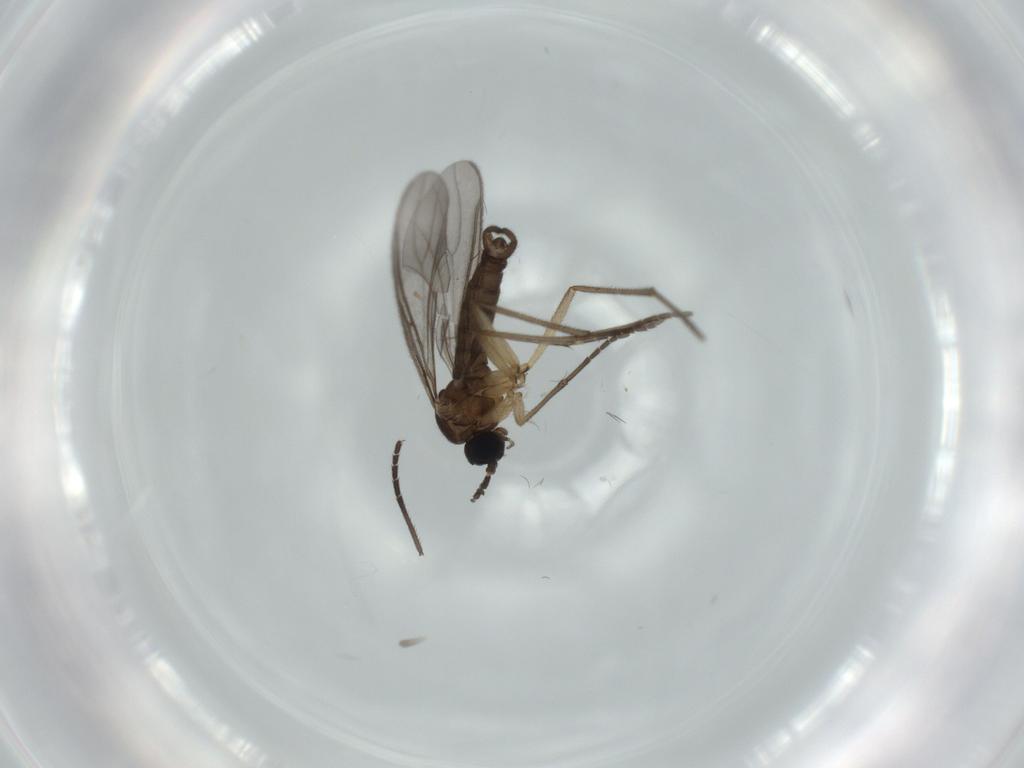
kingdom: Animalia
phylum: Arthropoda
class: Insecta
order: Diptera
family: Sciaridae
